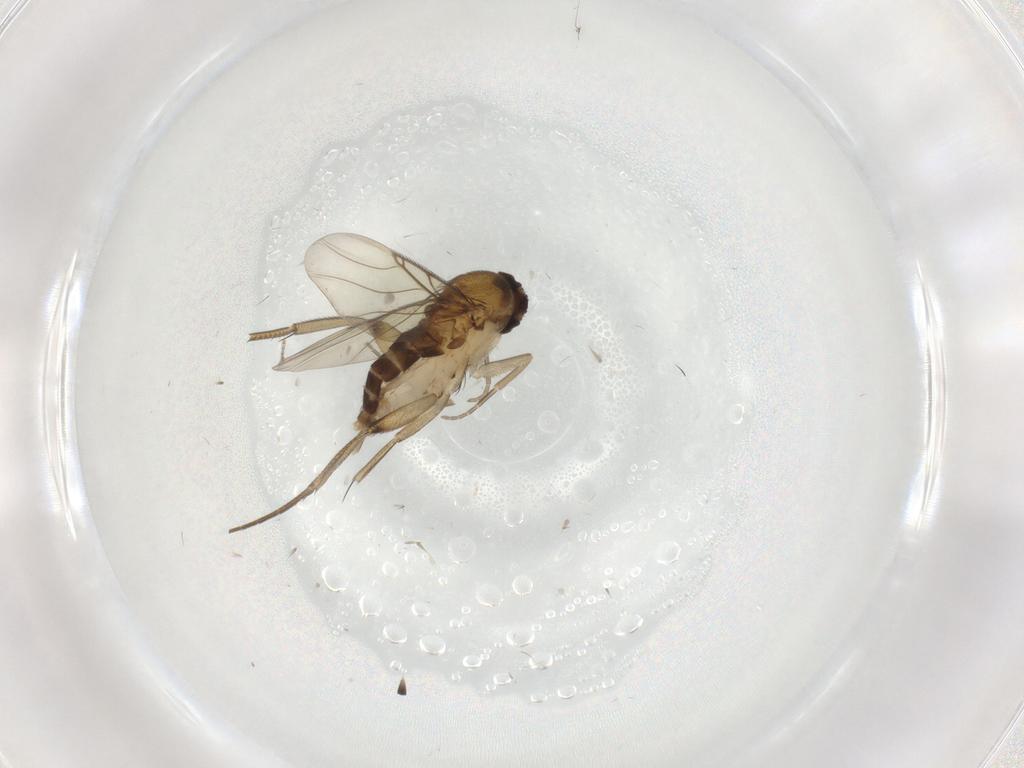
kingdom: Animalia
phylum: Arthropoda
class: Insecta
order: Diptera
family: Phoridae
